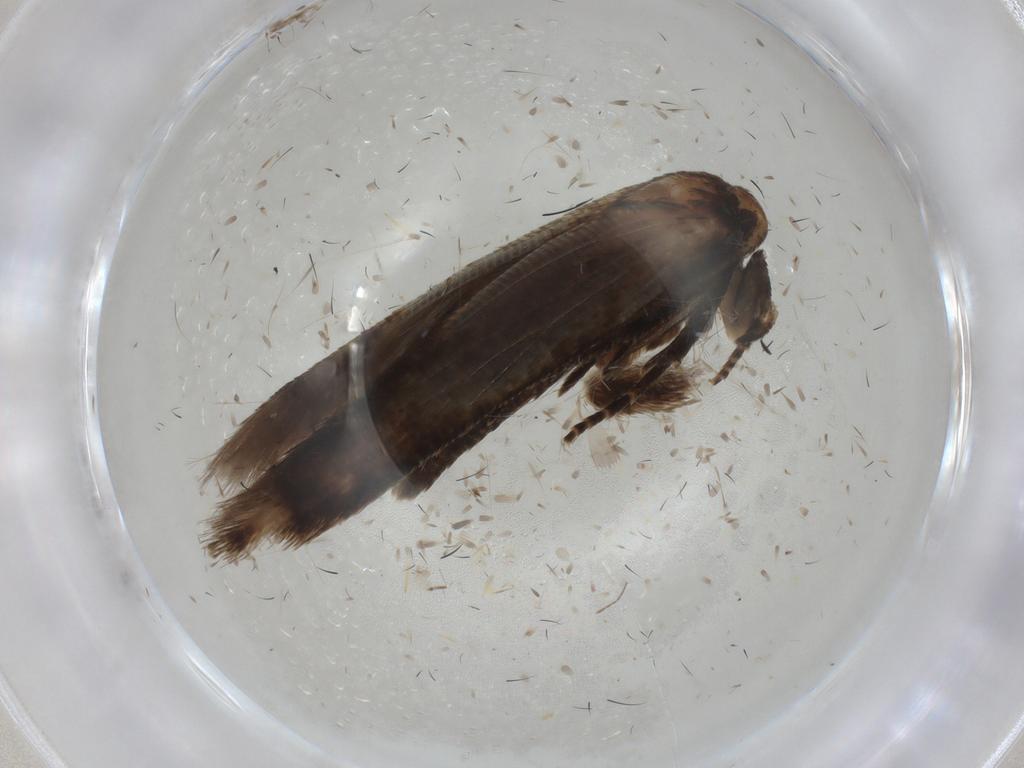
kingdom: Animalia
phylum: Arthropoda
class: Insecta
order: Lepidoptera
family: Cosmopterigidae
